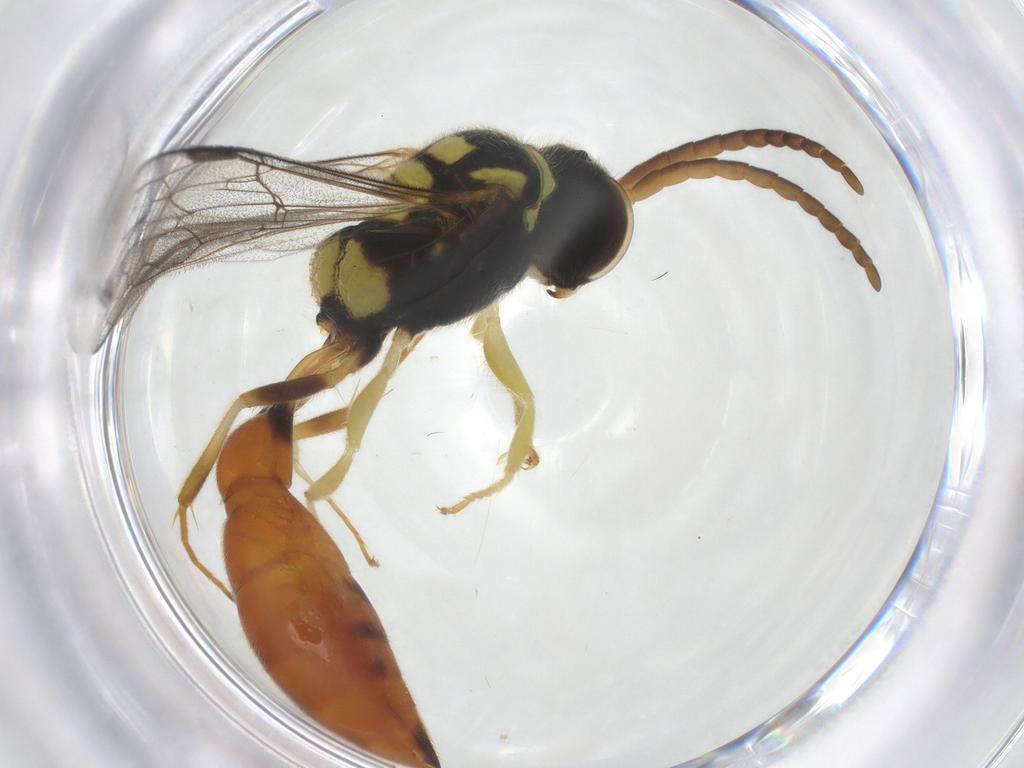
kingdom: Animalia
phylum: Arthropoda
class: Insecta
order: Hymenoptera
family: Crabronidae
